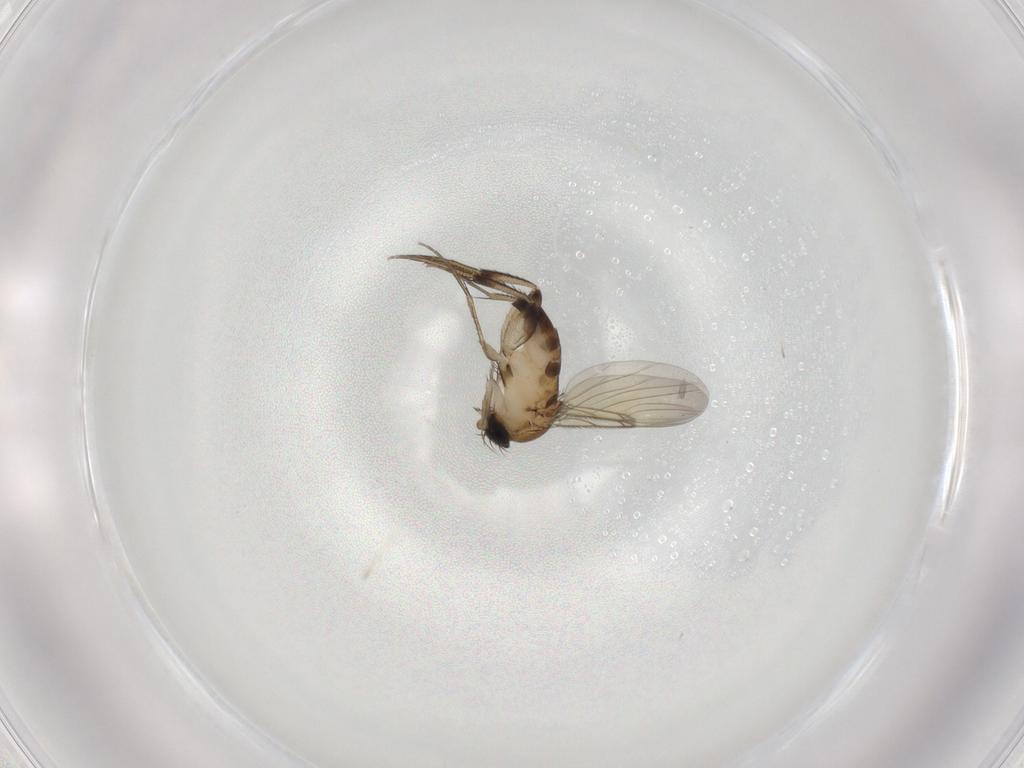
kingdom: Animalia
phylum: Arthropoda
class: Insecta
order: Diptera
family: Phoridae
